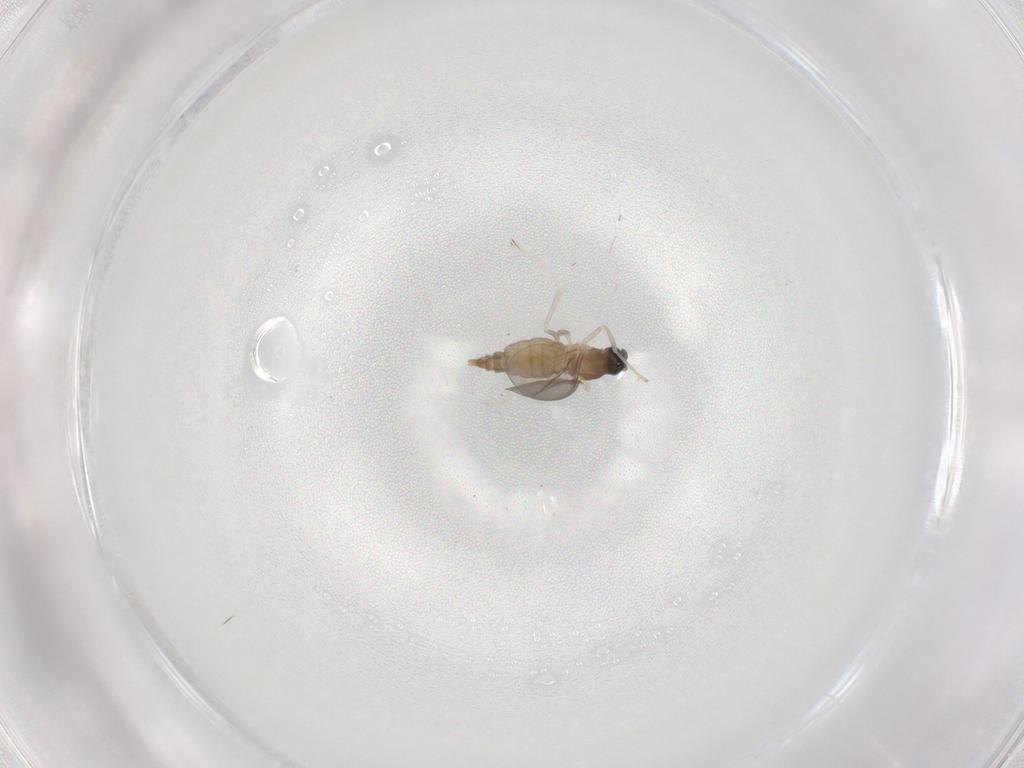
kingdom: Animalia
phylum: Arthropoda
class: Insecta
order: Diptera
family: Cecidomyiidae
